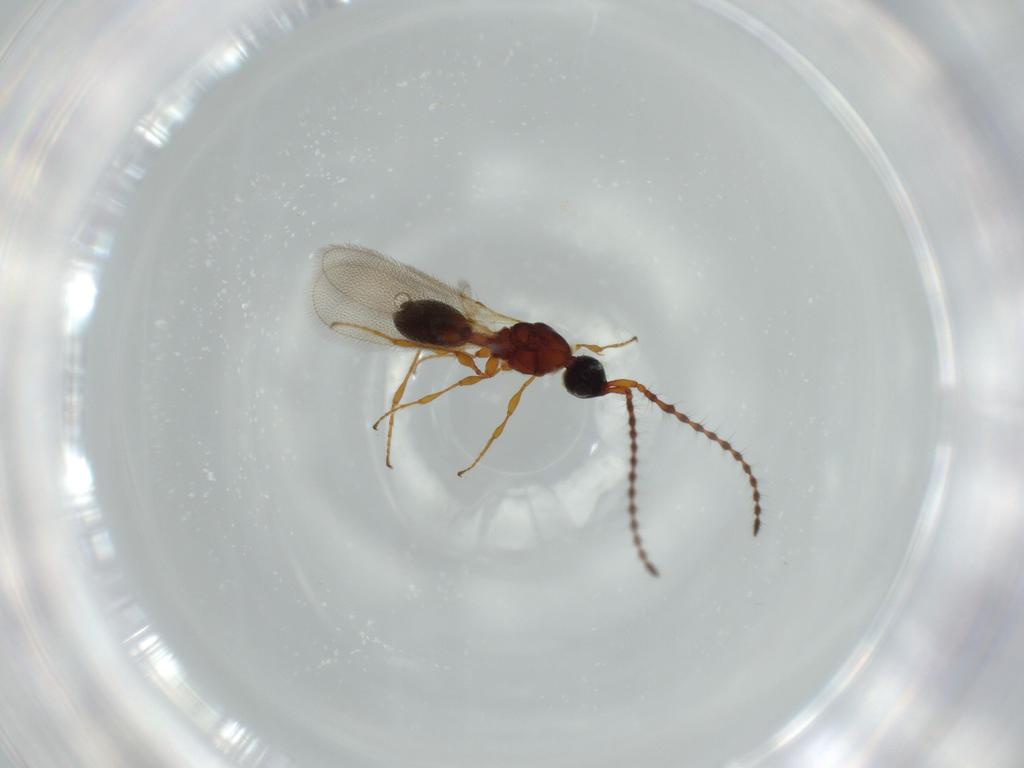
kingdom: Animalia
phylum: Arthropoda
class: Insecta
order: Hymenoptera
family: Diapriidae
